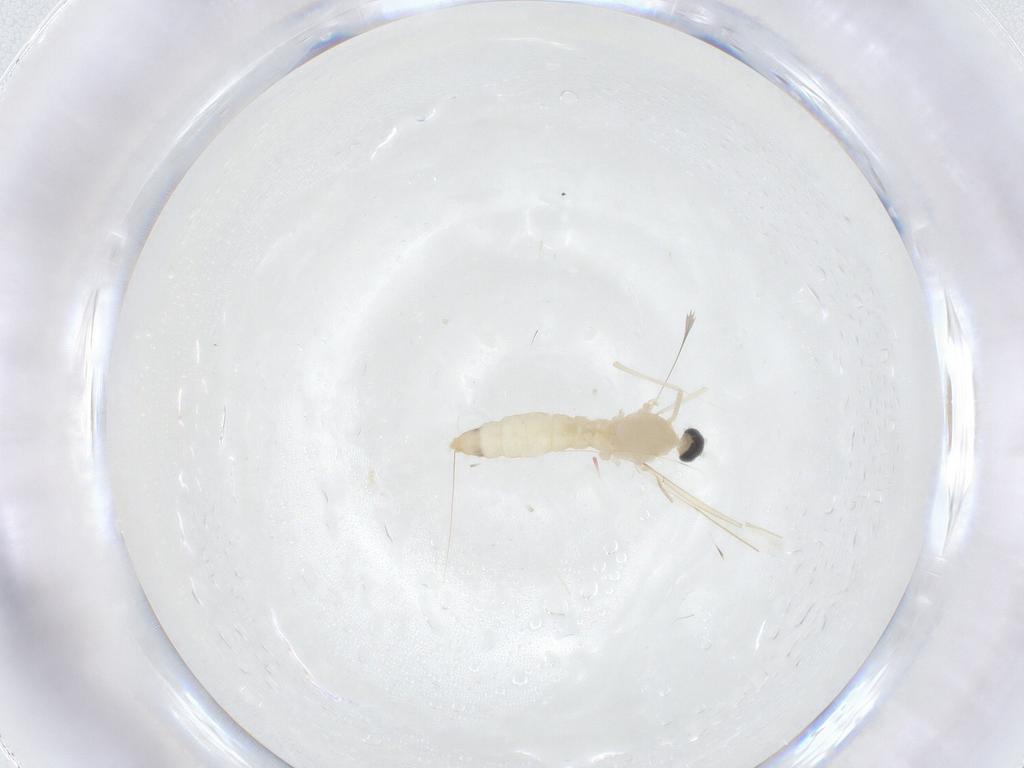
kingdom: Animalia
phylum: Arthropoda
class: Insecta
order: Diptera
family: Cecidomyiidae
